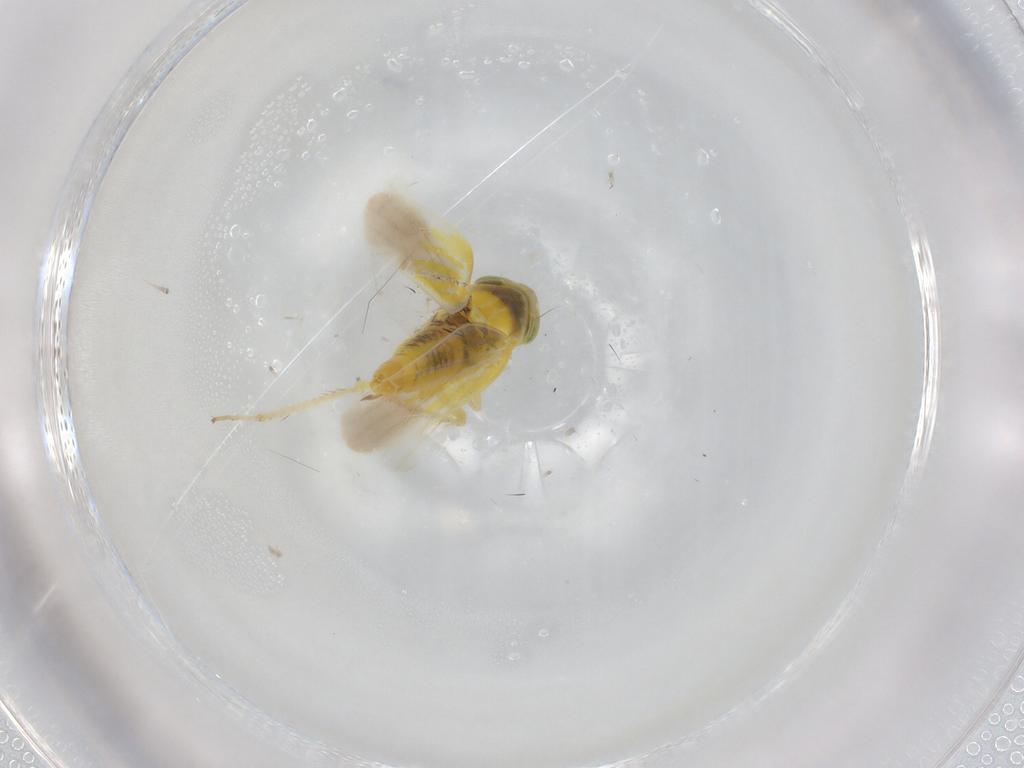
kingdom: Animalia
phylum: Arthropoda
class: Insecta
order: Hemiptera
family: Cicadellidae
